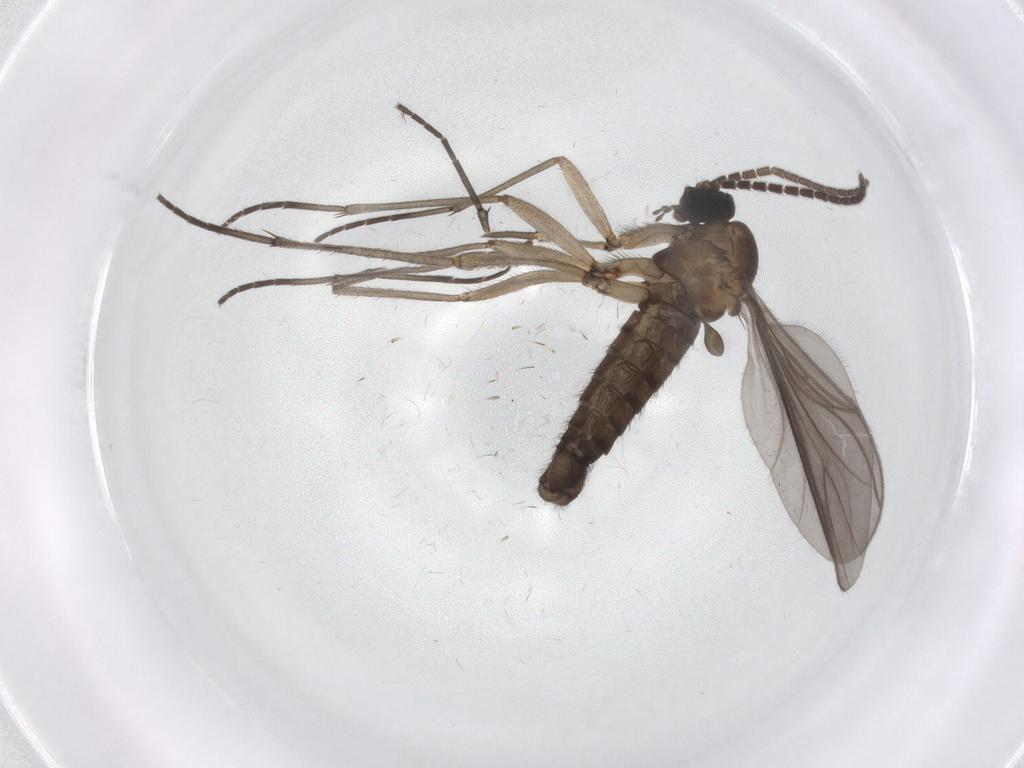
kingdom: Animalia
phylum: Arthropoda
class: Insecta
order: Diptera
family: Sciaridae
